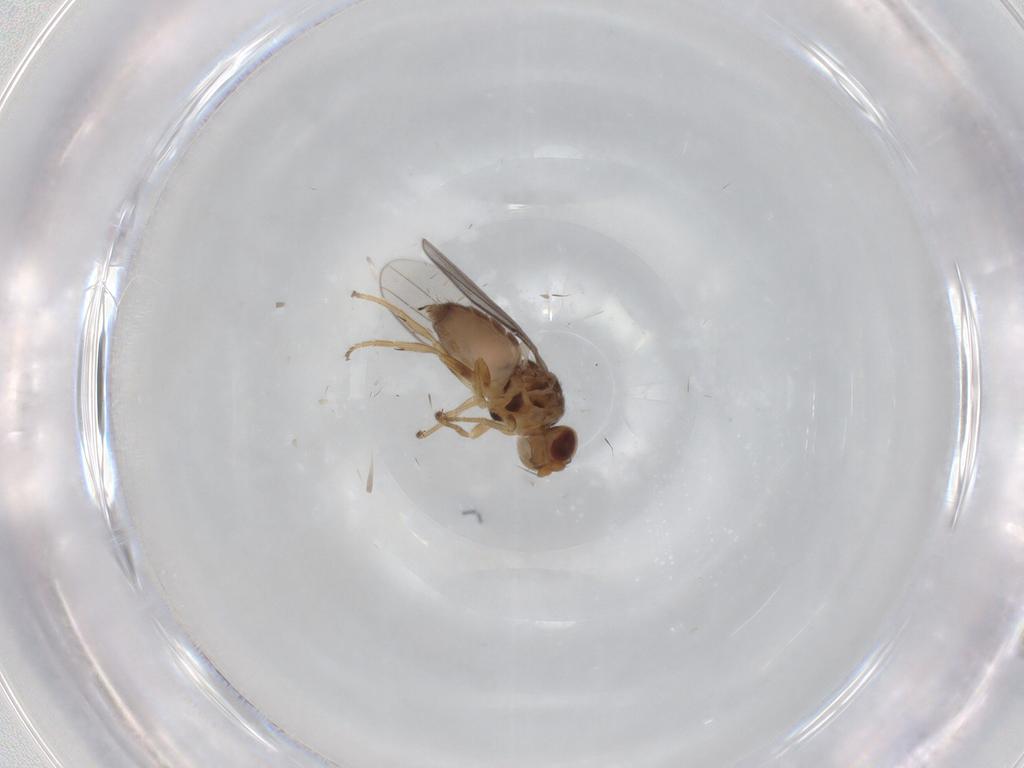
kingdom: Animalia
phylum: Arthropoda
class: Insecta
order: Diptera
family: Chloropidae
